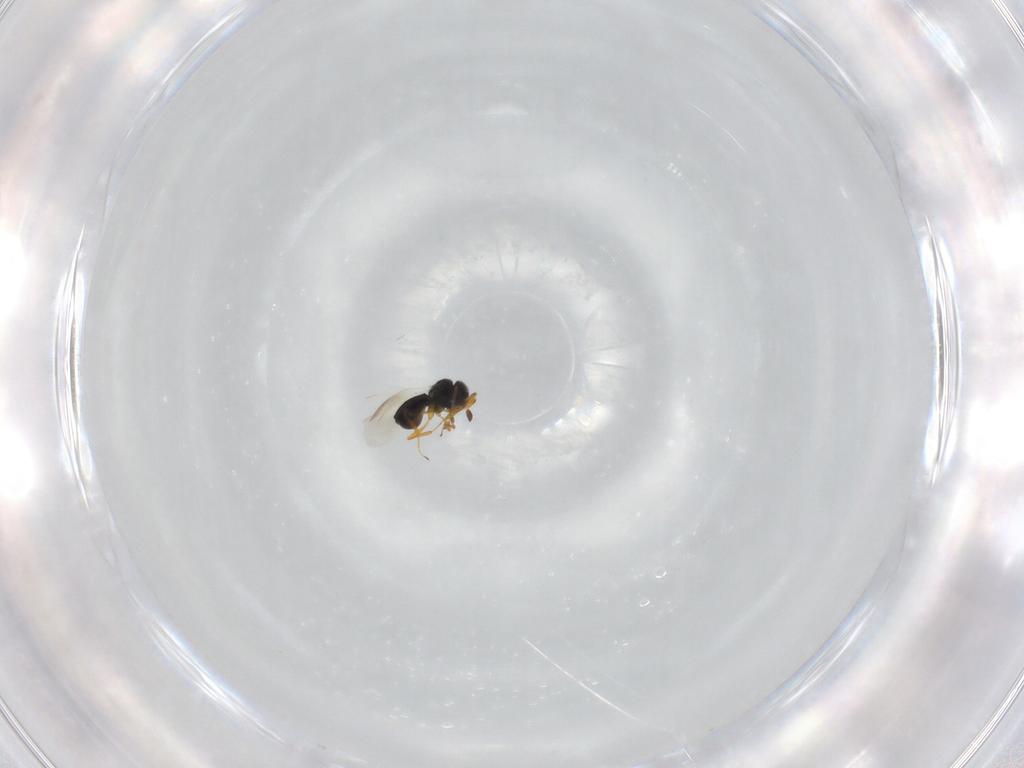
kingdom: Animalia
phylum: Arthropoda
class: Insecta
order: Hymenoptera
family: Platygastridae
